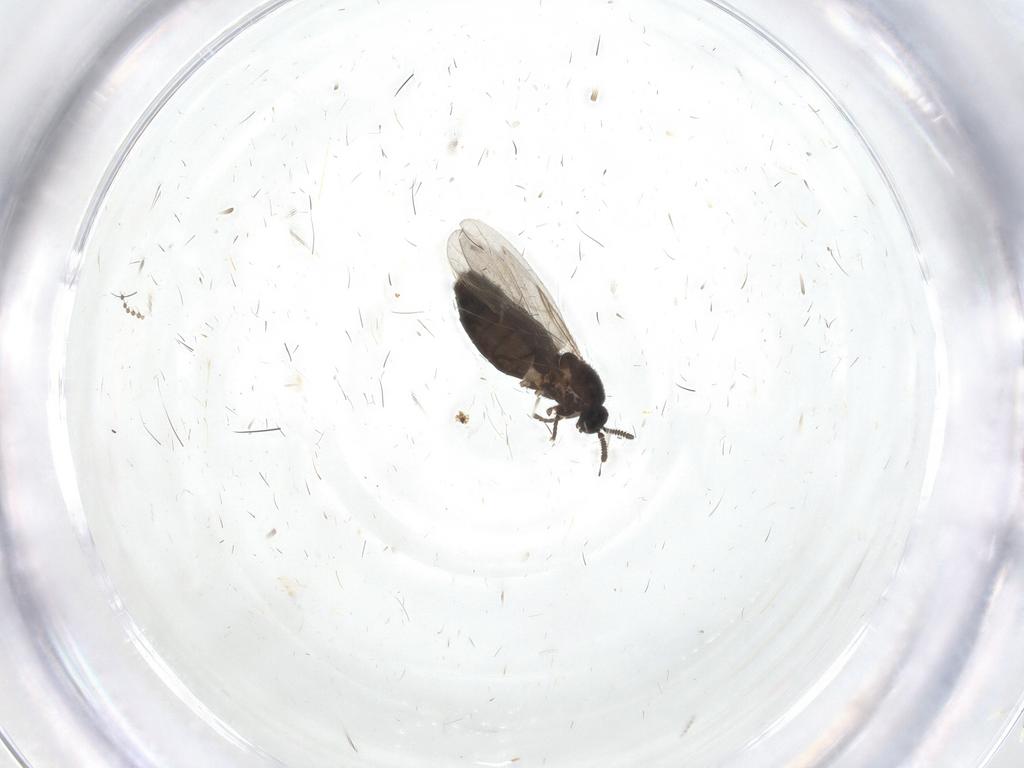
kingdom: Animalia
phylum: Arthropoda
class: Insecta
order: Diptera
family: Scatopsidae
